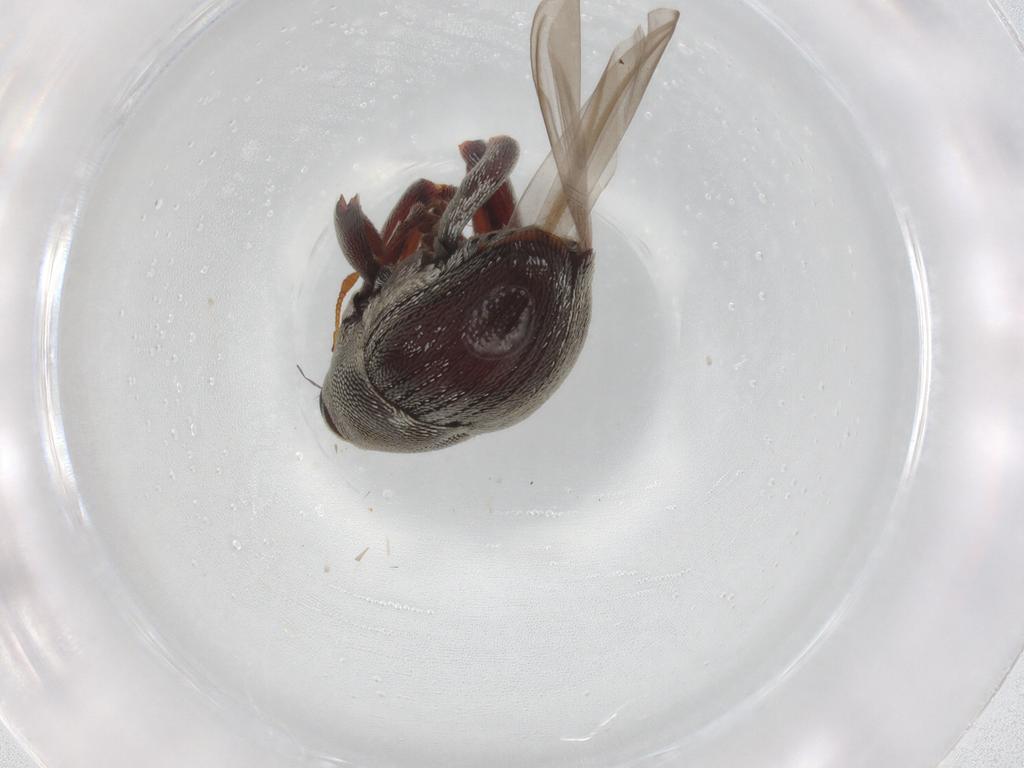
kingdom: Animalia
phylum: Arthropoda
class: Insecta
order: Coleoptera
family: Curculionidae
